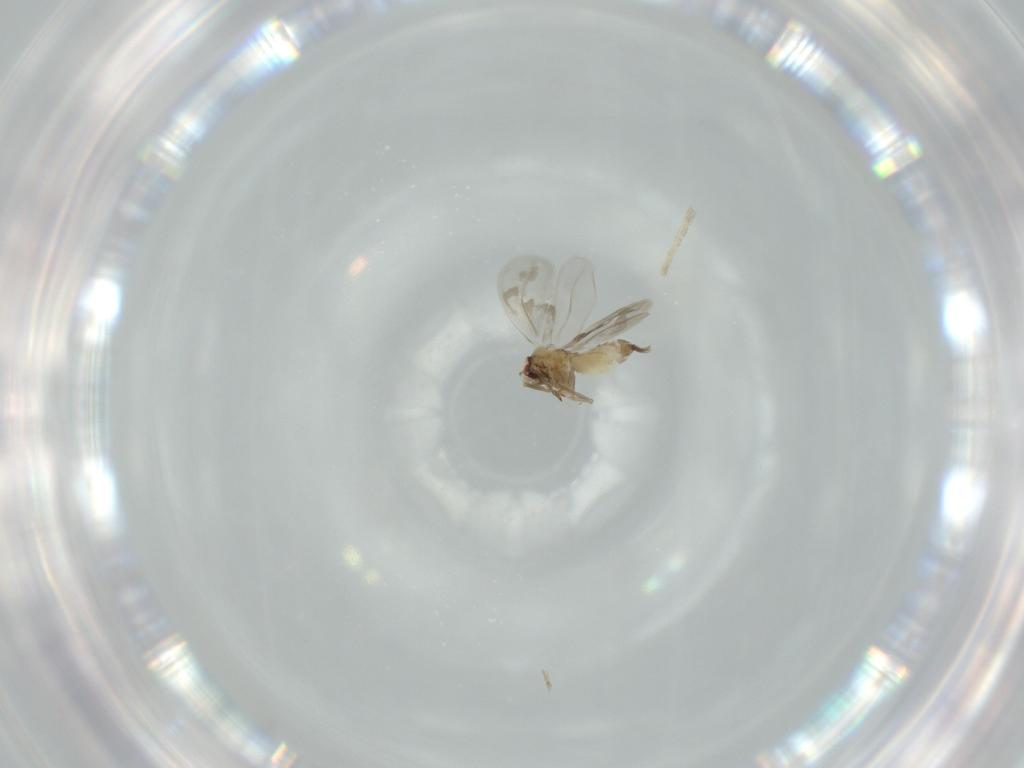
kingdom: Animalia
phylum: Arthropoda
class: Insecta
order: Hemiptera
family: Aleyrodidae
